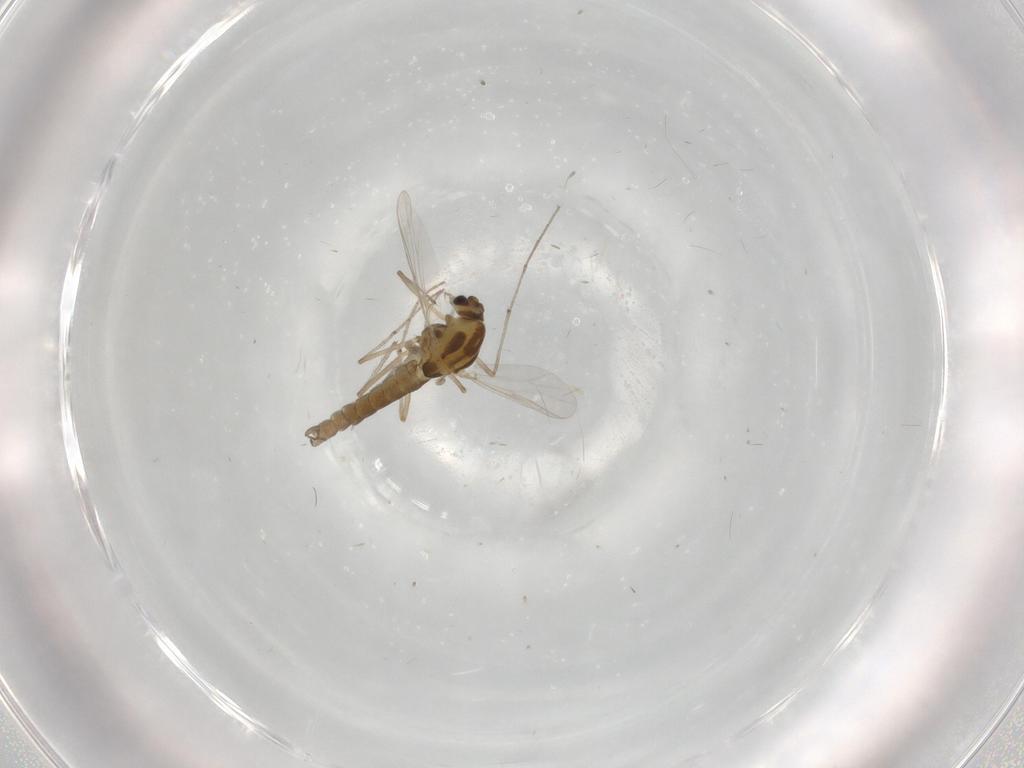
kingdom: Animalia
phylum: Arthropoda
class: Insecta
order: Diptera
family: Chironomidae
